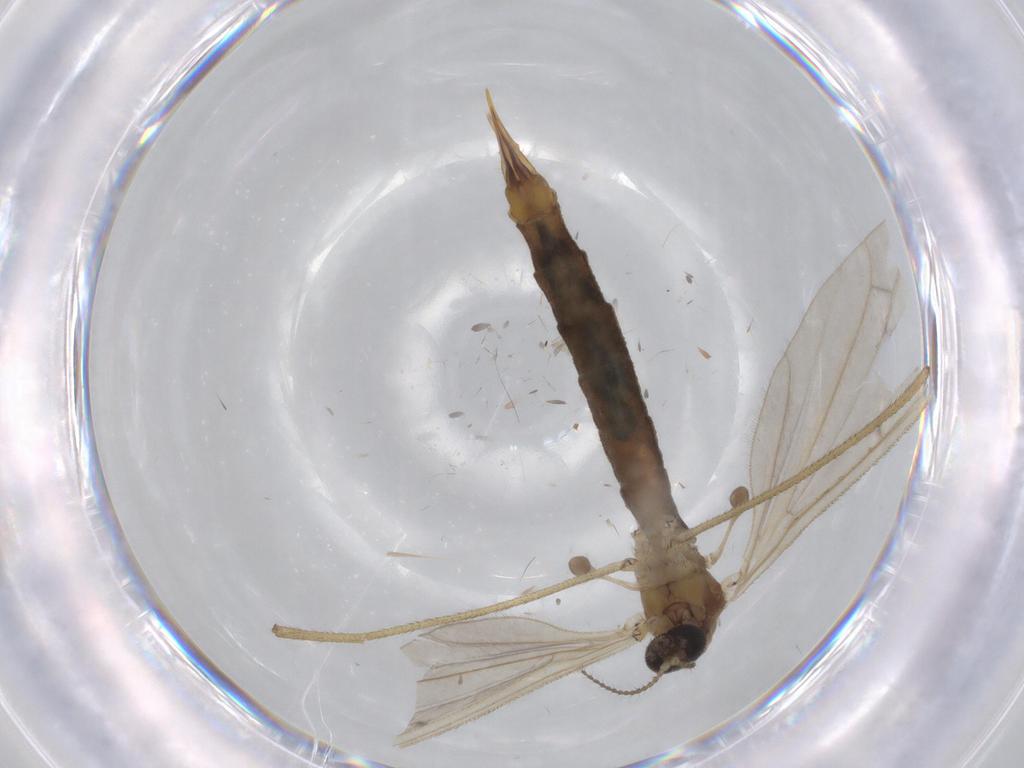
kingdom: Animalia
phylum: Arthropoda
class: Insecta
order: Diptera
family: Dolichopodidae
